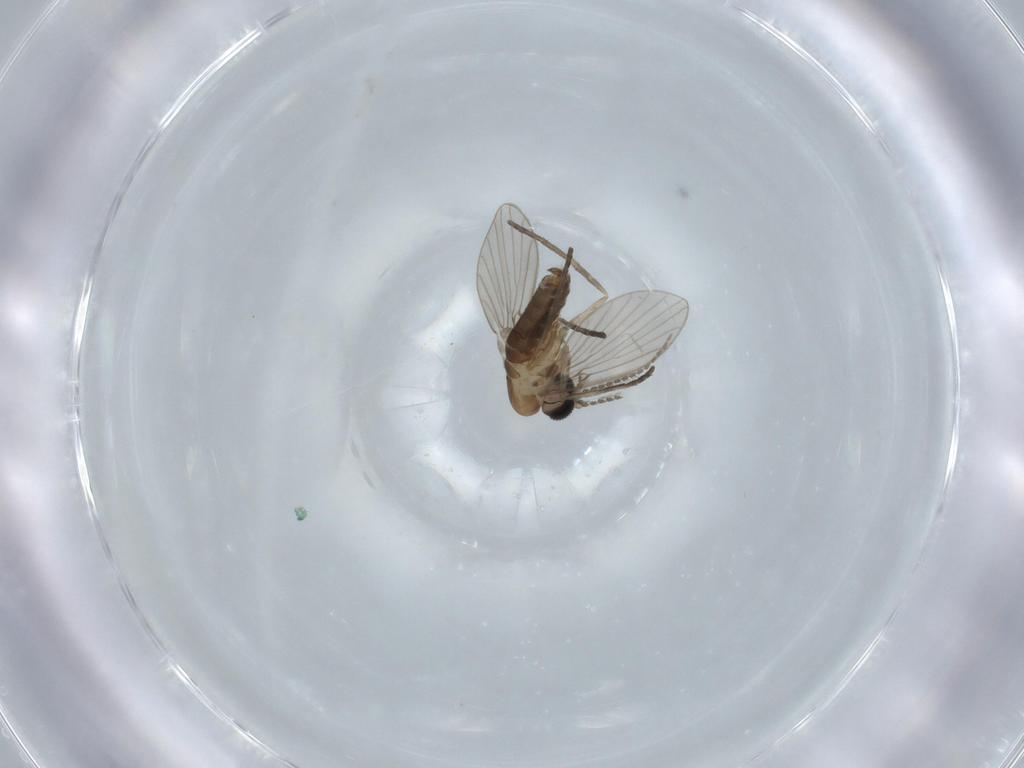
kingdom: Animalia
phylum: Arthropoda
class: Insecta
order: Diptera
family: Psychodidae
